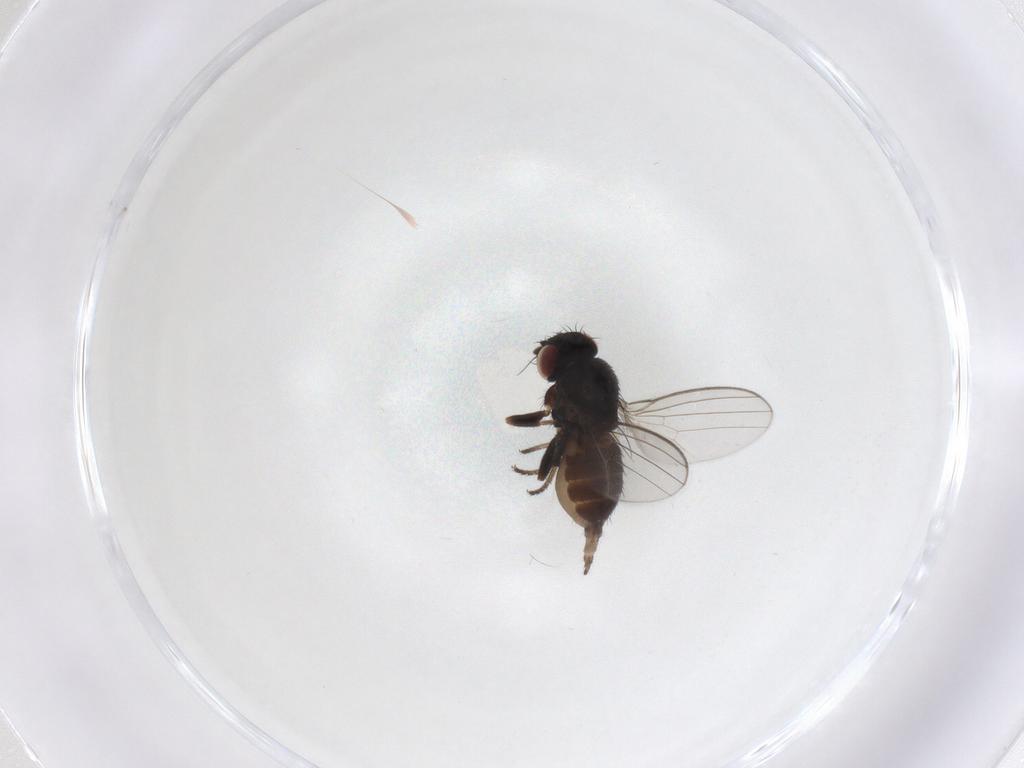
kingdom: Animalia
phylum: Arthropoda
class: Insecta
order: Diptera
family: Milichiidae
